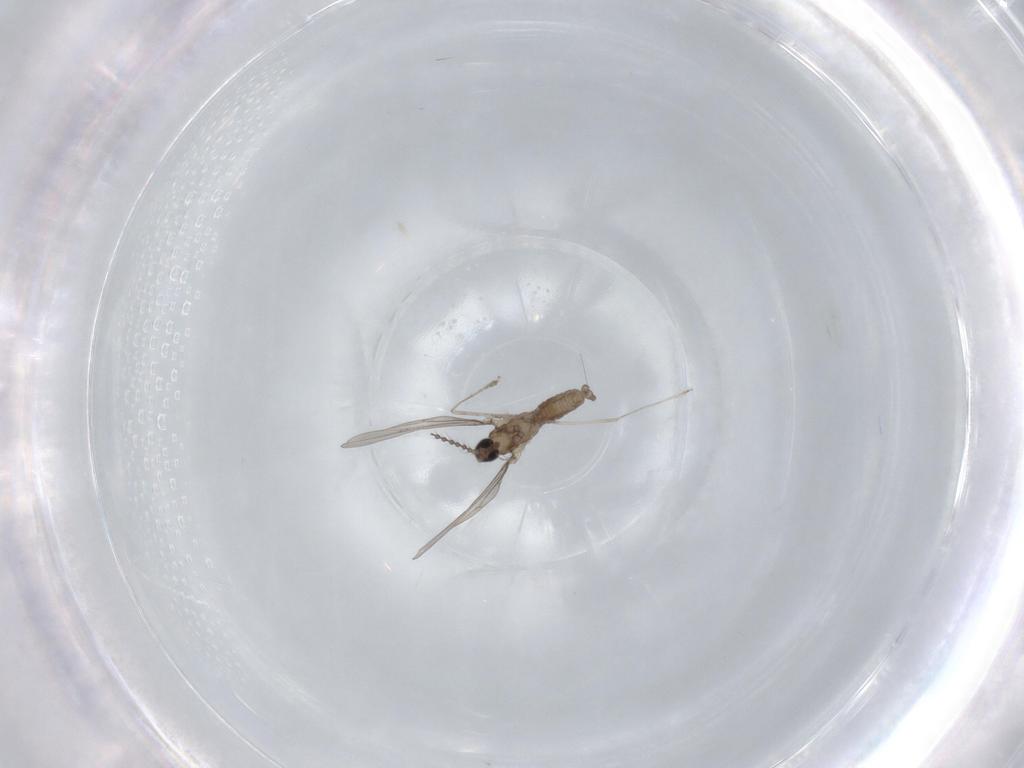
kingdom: Animalia
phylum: Arthropoda
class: Insecta
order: Diptera
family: Cecidomyiidae
